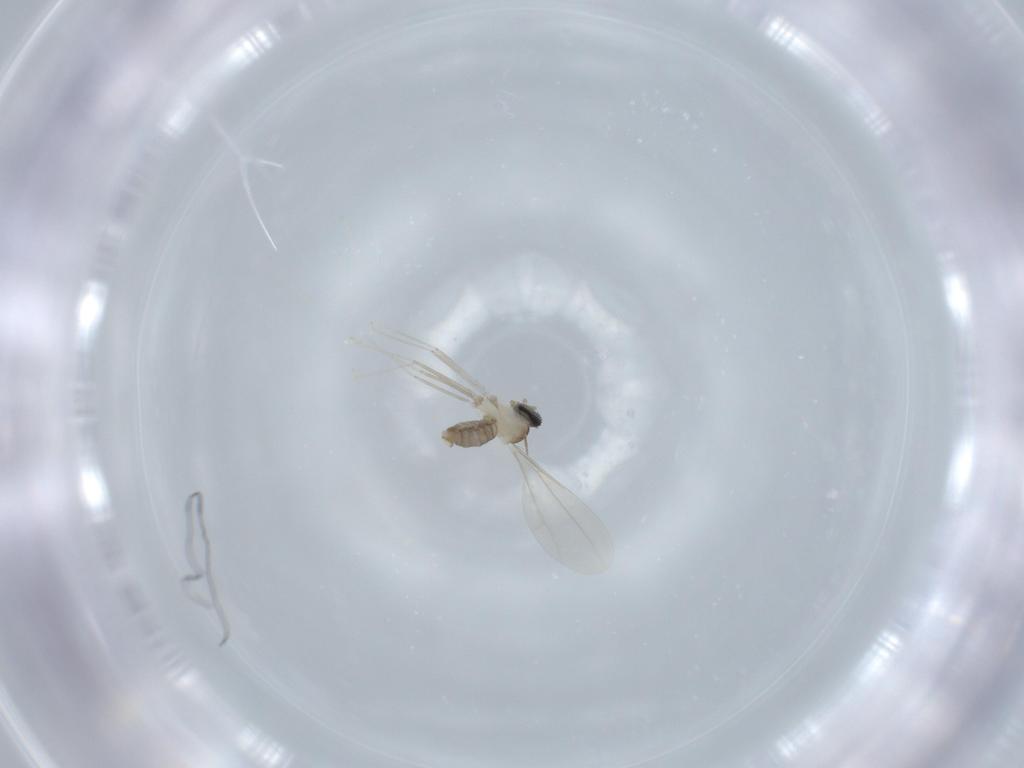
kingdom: Animalia
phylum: Arthropoda
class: Insecta
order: Diptera
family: Cecidomyiidae
